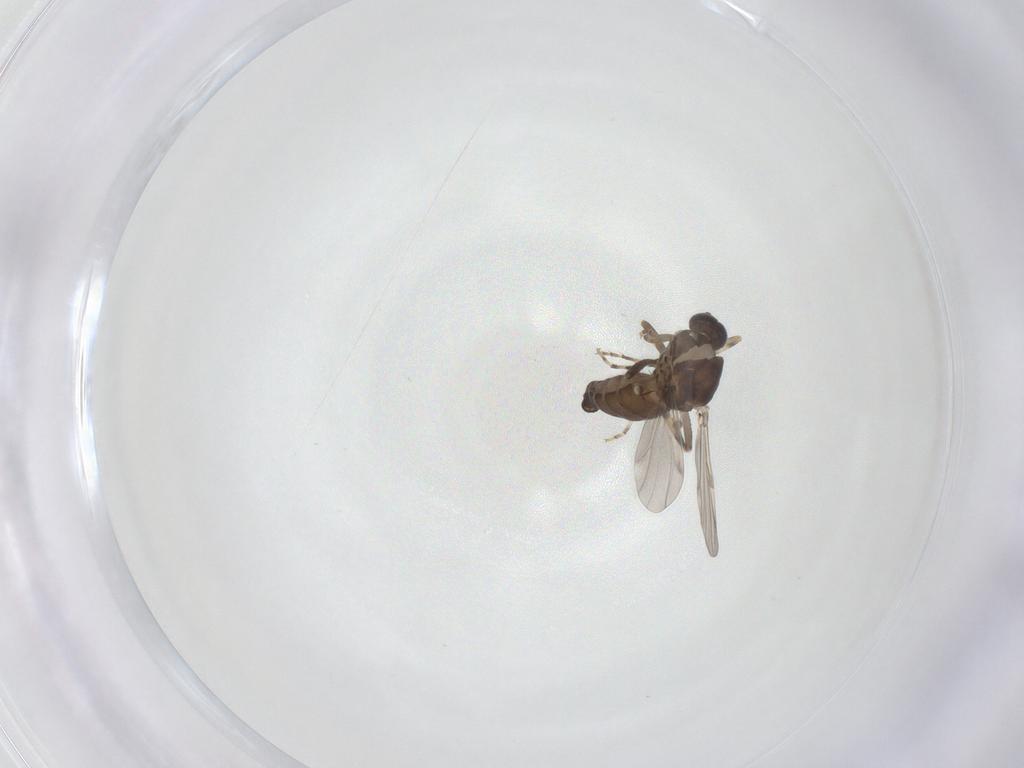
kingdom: Animalia
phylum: Arthropoda
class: Insecta
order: Diptera
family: Ceratopogonidae
